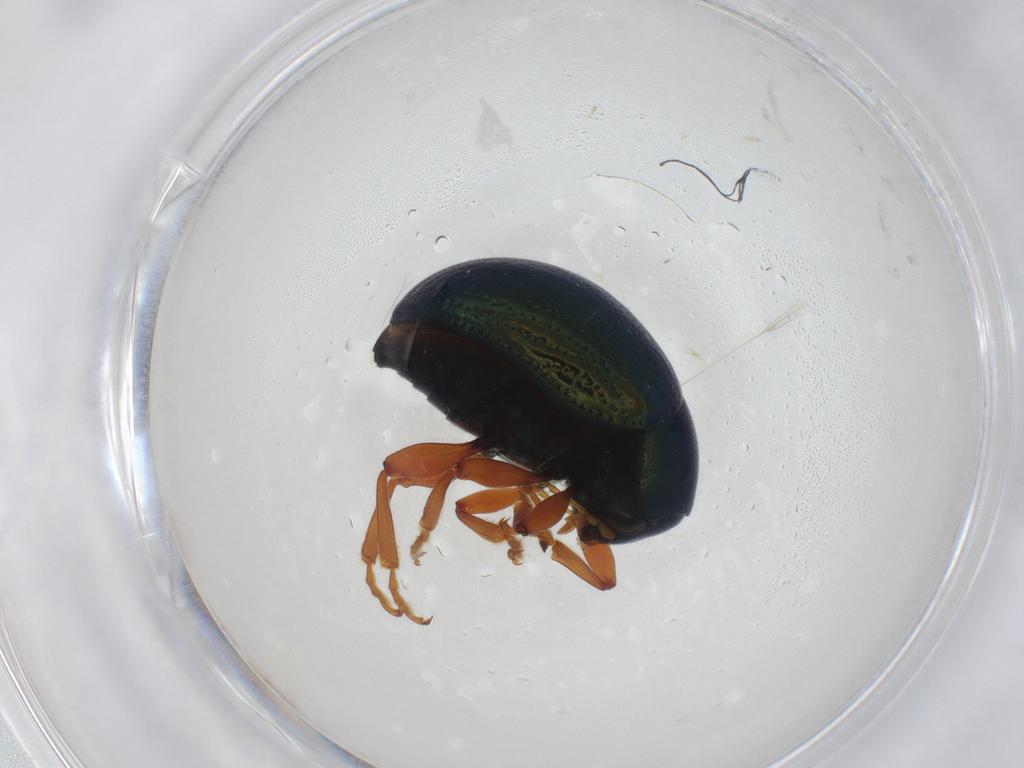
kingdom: Animalia
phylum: Arthropoda
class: Insecta
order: Coleoptera
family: Chrysomelidae
